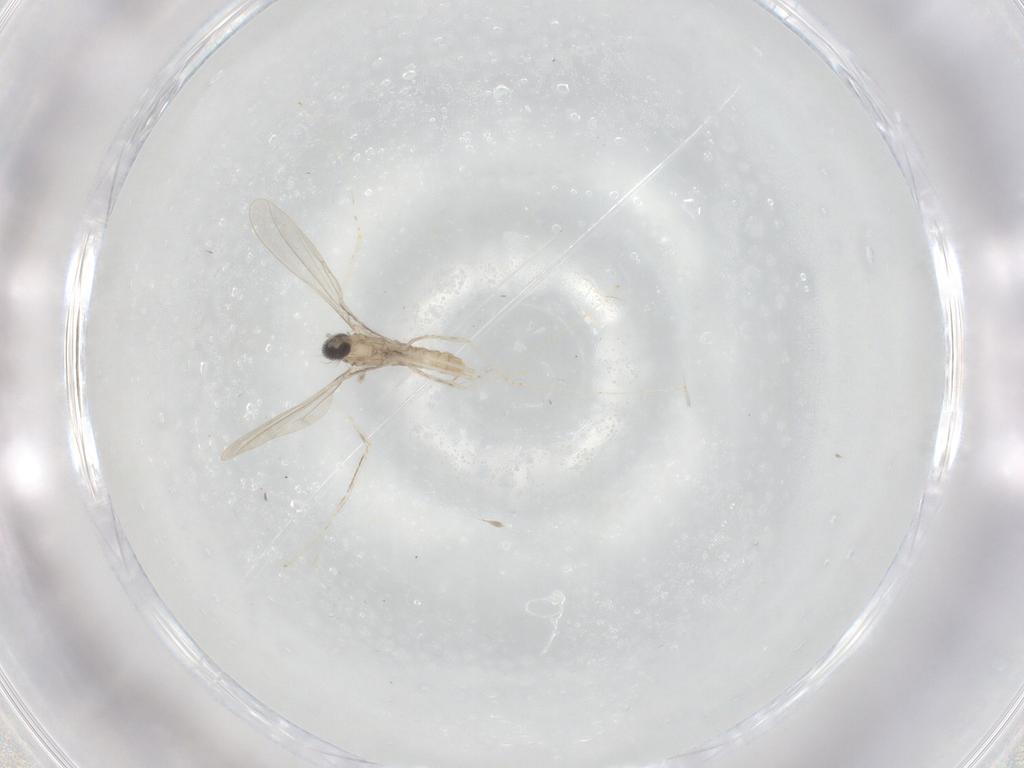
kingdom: Animalia
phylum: Arthropoda
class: Insecta
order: Diptera
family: Cecidomyiidae
